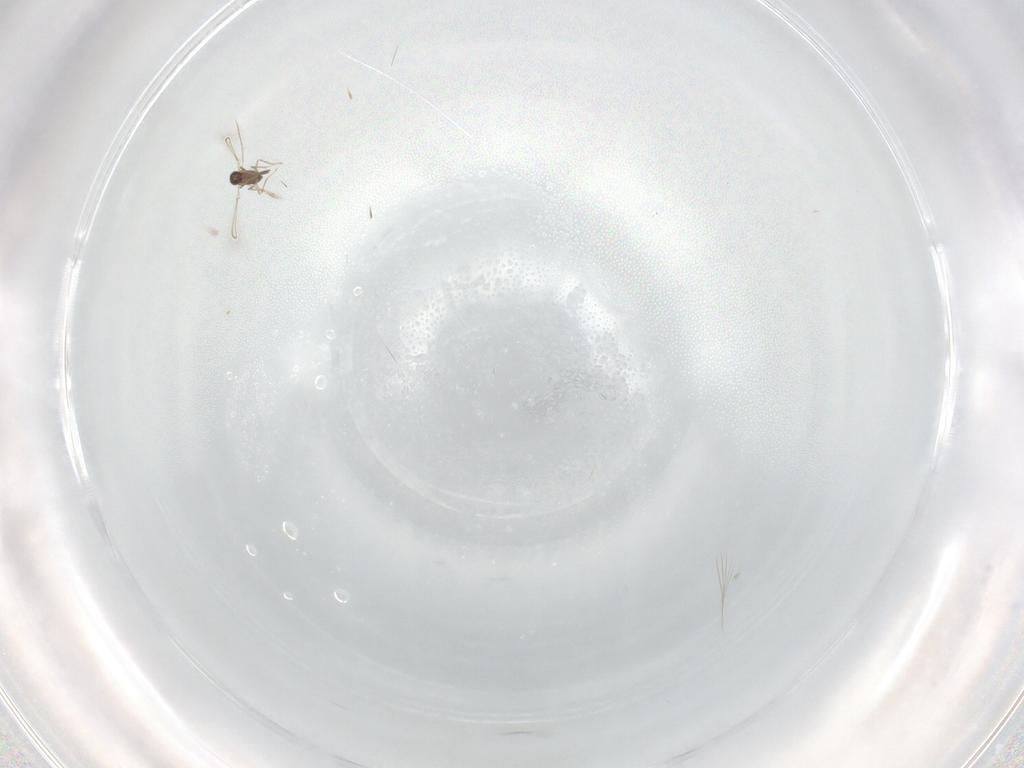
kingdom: Animalia
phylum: Arthropoda
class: Insecta
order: Hymenoptera
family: Trichogrammatidae
